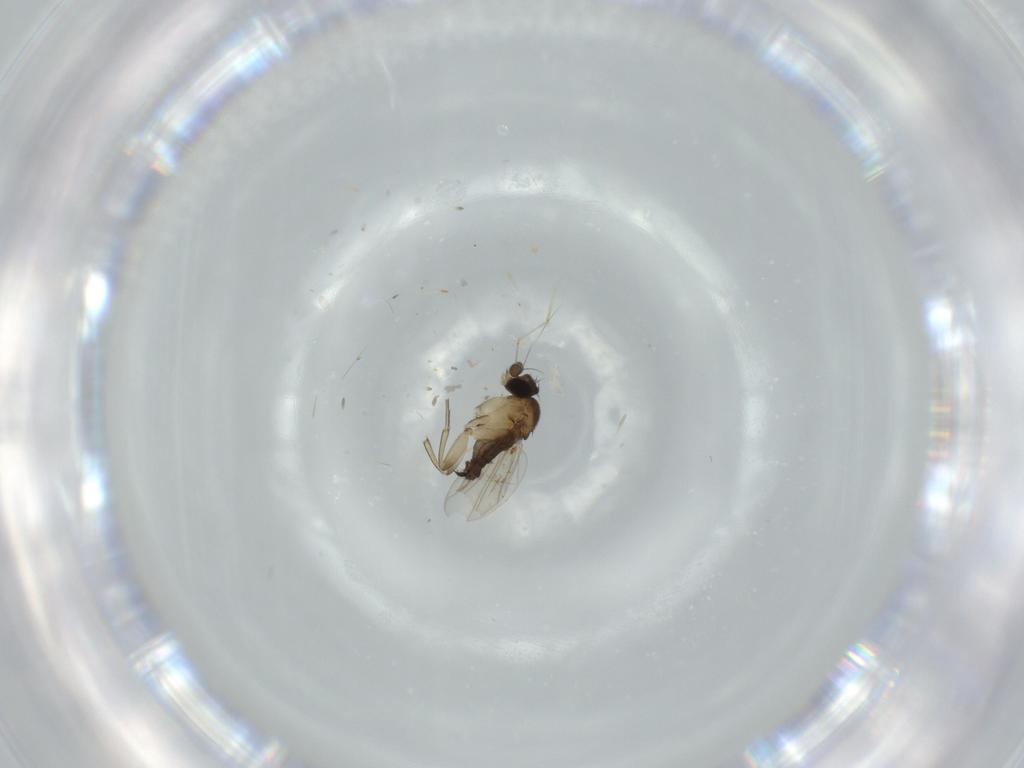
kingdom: Animalia
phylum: Arthropoda
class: Insecta
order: Diptera
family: Phoridae
